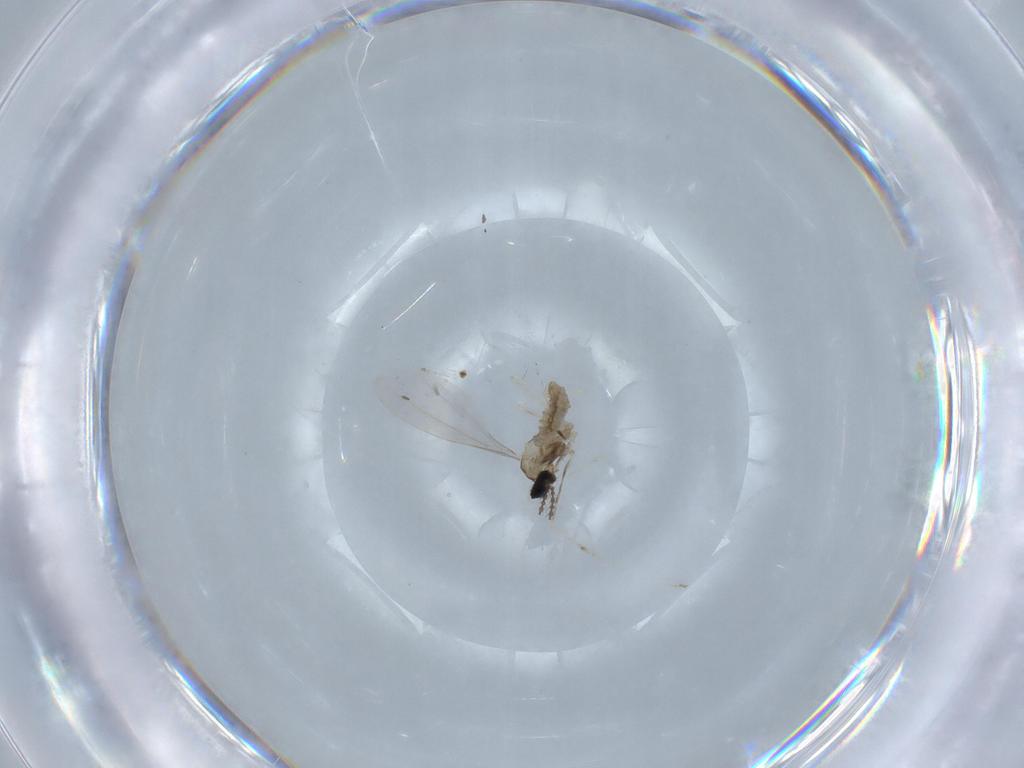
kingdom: Animalia
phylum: Arthropoda
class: Insecta
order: Diptera
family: Cecidomyiidae
